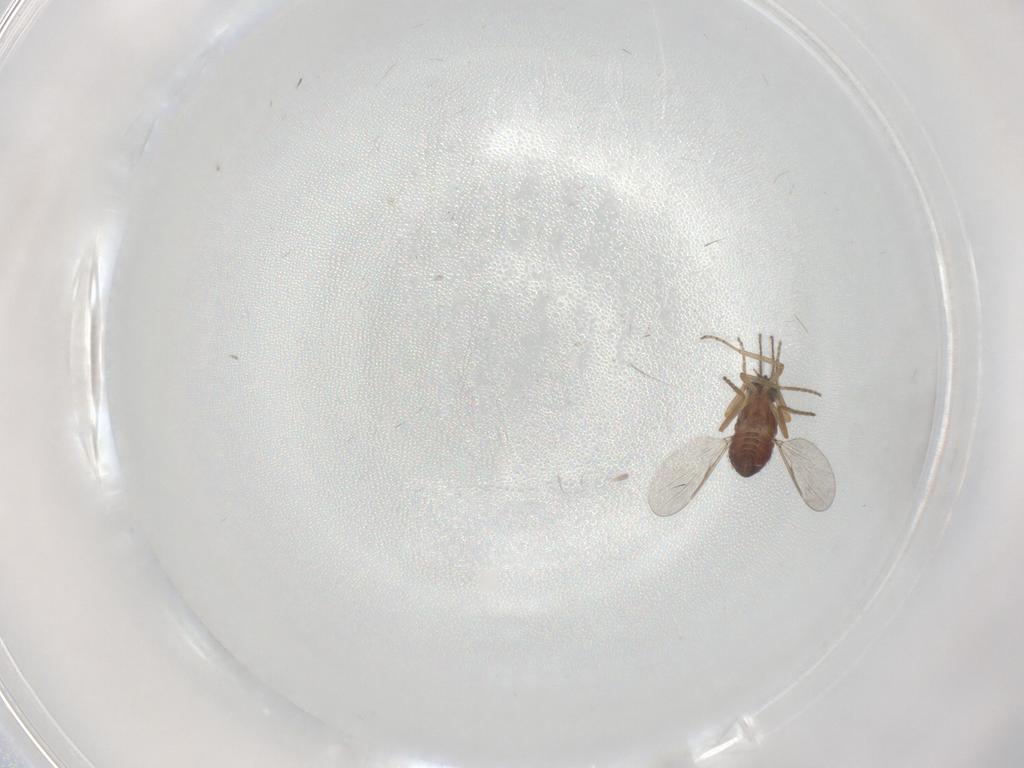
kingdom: Animalia
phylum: Arthropoda
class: Insecta
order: Diptera
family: Ceratopogonidae
